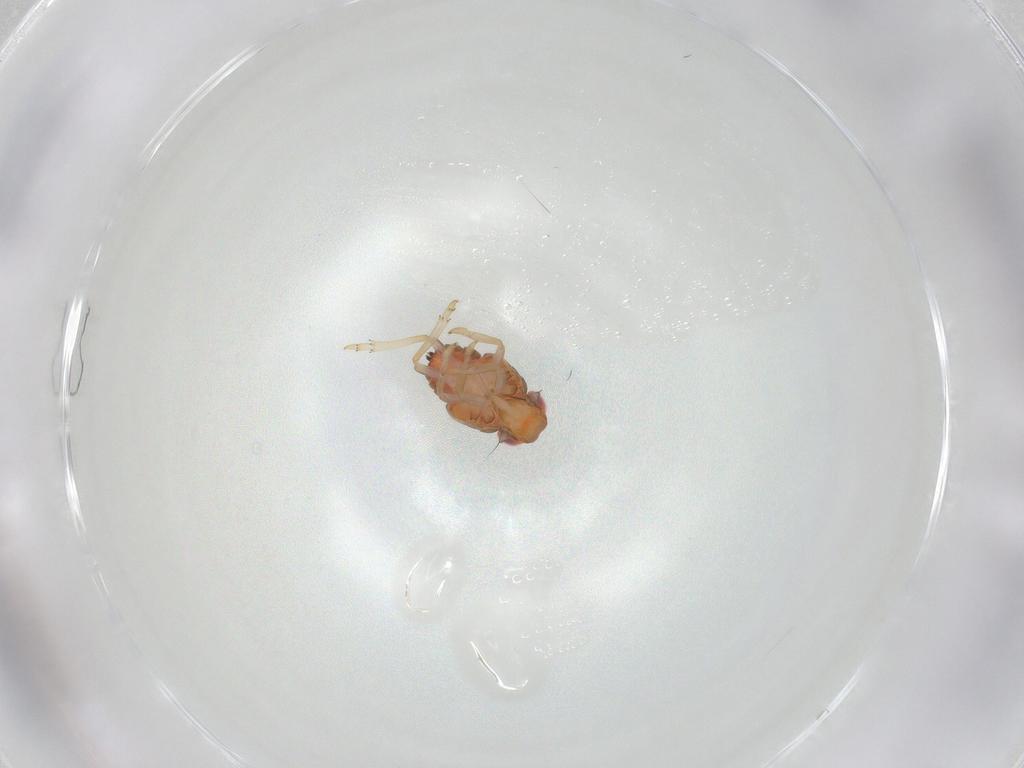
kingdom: Animalia
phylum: Arthropoda
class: Insecta
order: Hemiptera
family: Issidae
